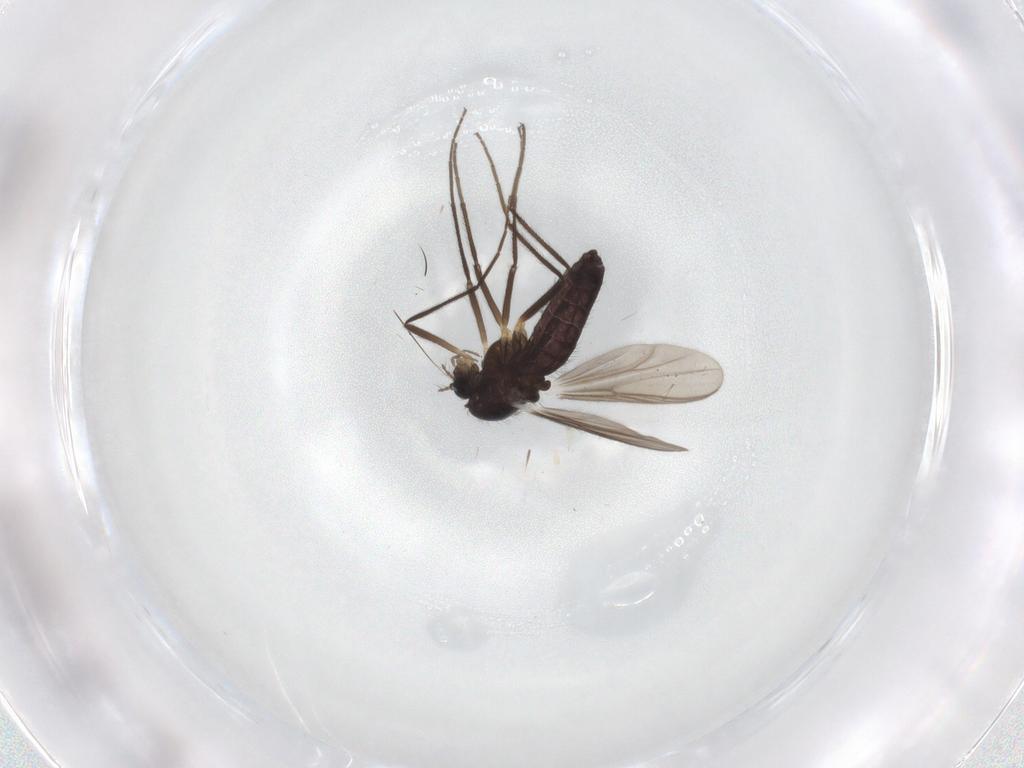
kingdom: Animalia
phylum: Arthropoda
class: Insecta
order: Diptera
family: Chironomidae
